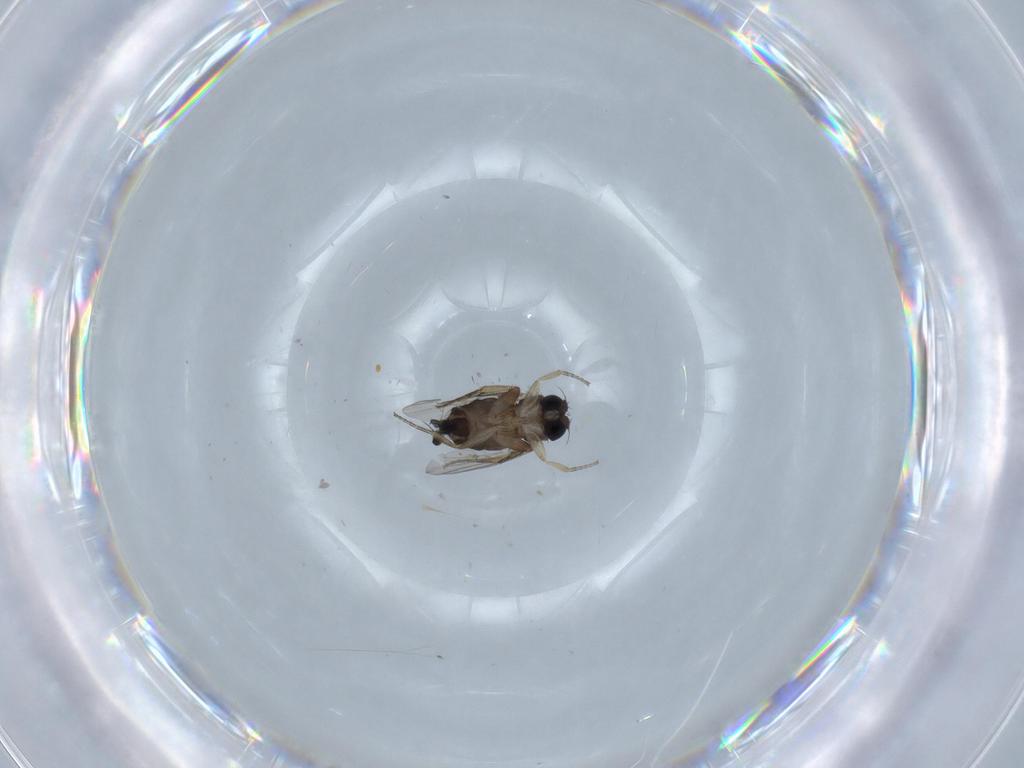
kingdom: Animalia
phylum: Arthropoda
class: Insecta
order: Diptera
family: Phoridae
